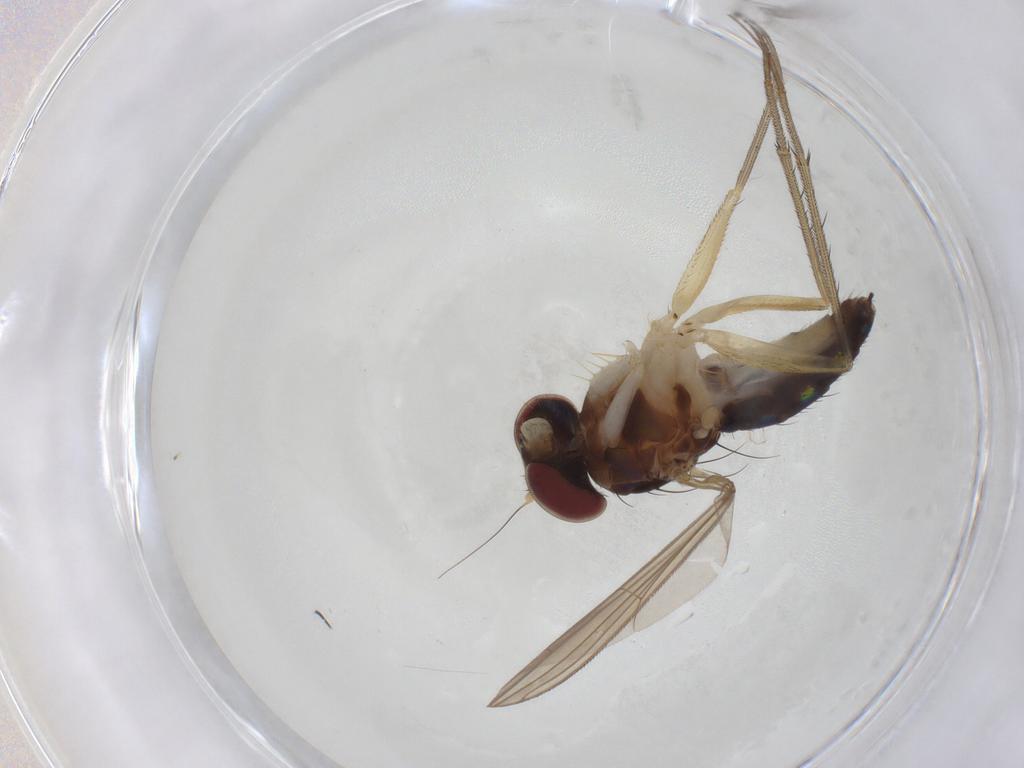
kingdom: Animalia
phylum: Arthropoda
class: Insecta
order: Diptera
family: Dolichopodidae
